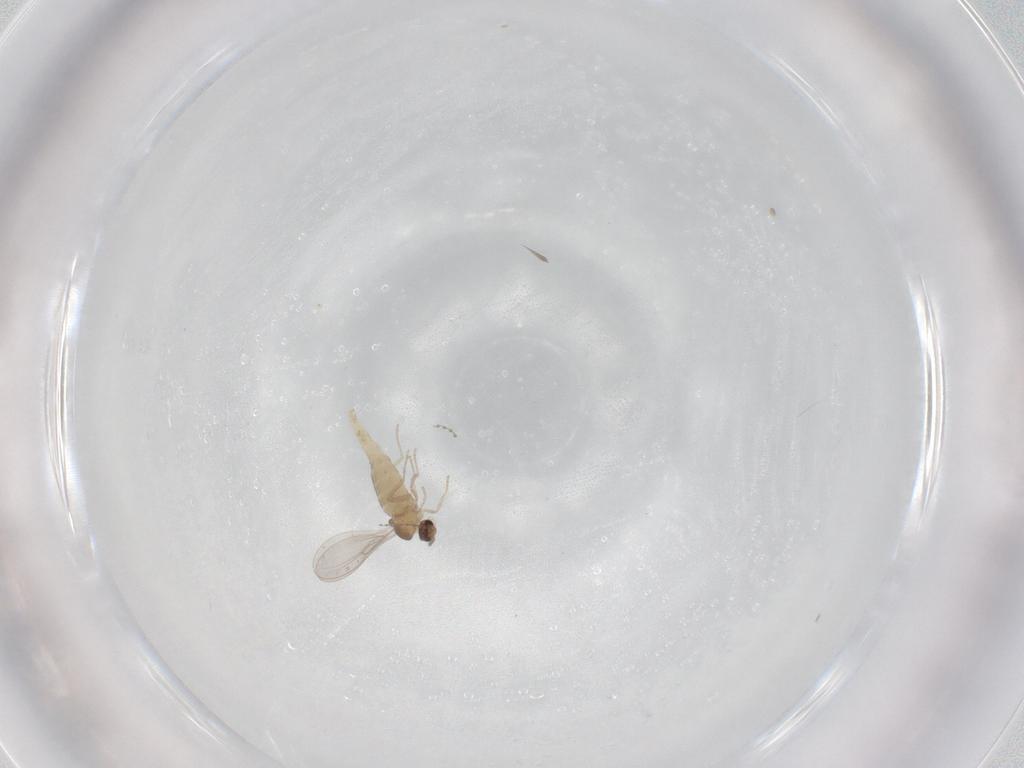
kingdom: Animalia
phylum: Arthropoda
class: Insecta
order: Diptera
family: Cecidomyiidae
